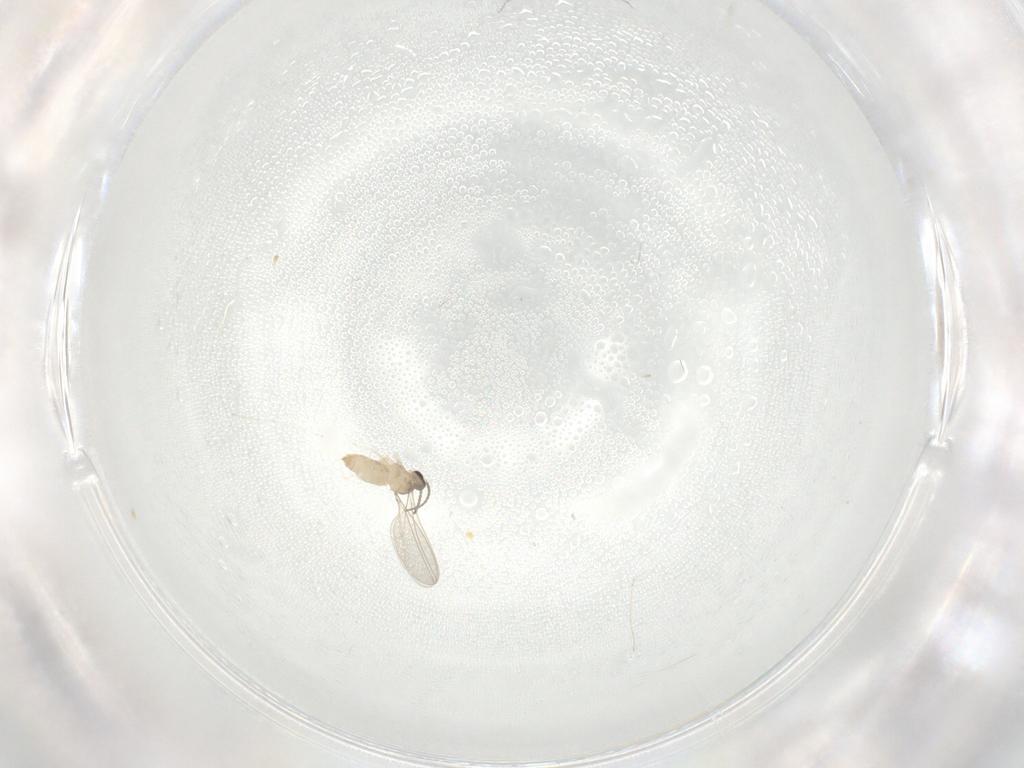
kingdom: Animalia
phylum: Arthropoda
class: Insecta
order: Diptera
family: Cecidomyiidae
